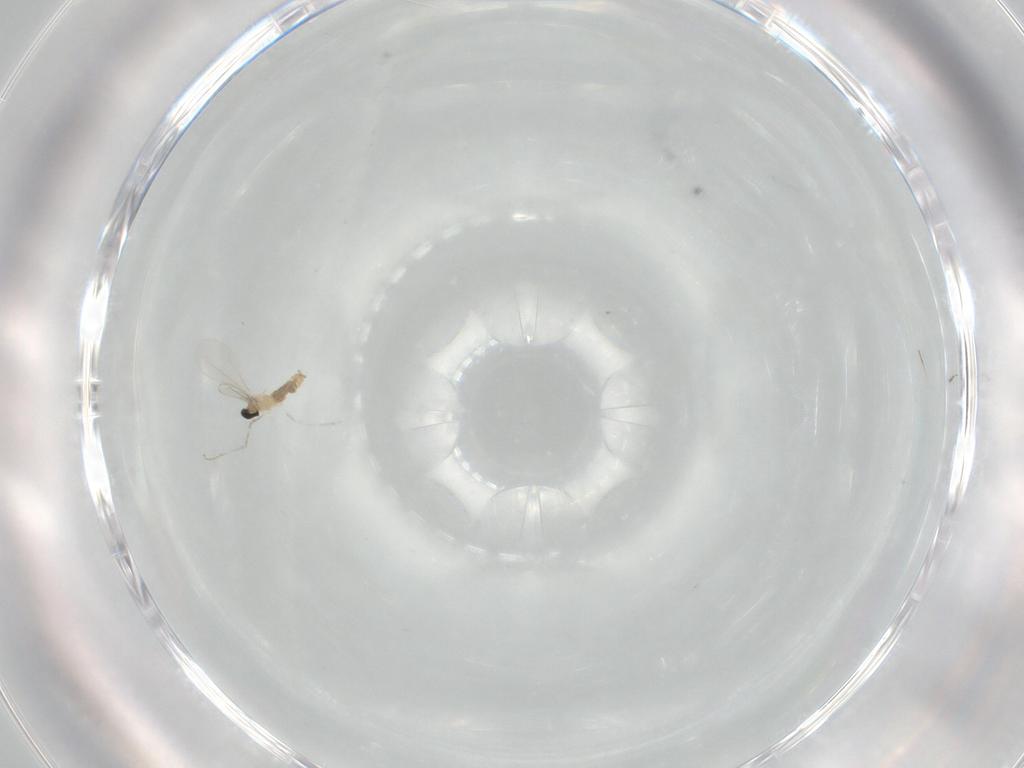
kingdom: Animalia
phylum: Arthropoda
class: Insecta
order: Diptera
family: Cecidomyiidae
